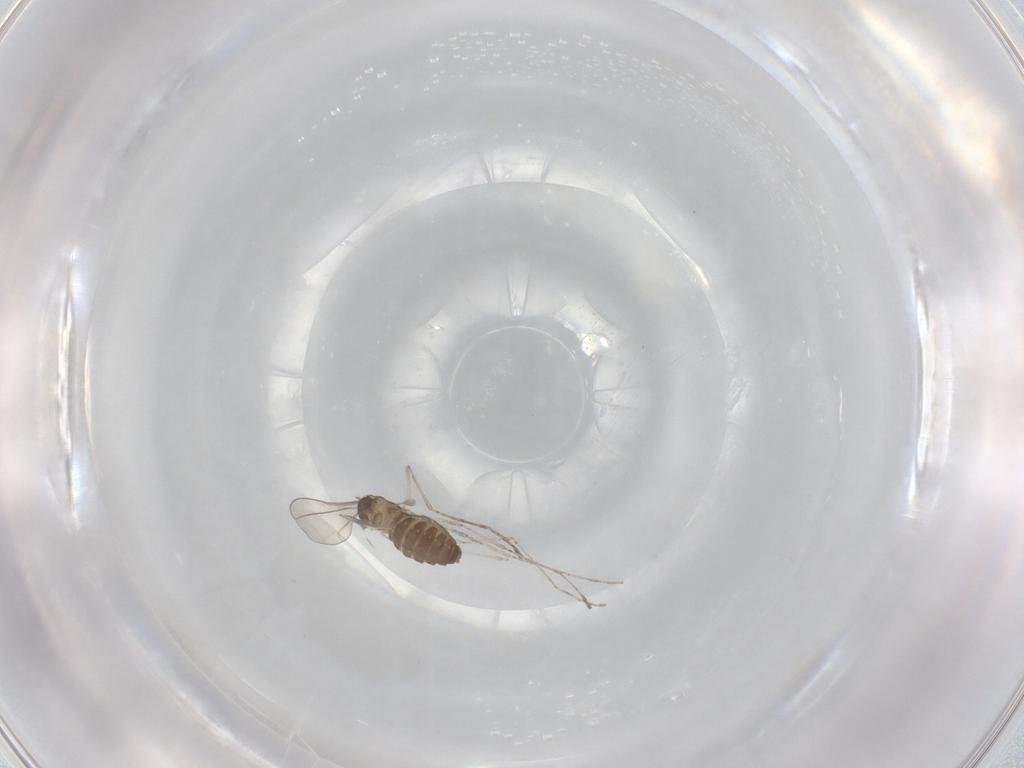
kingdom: Animalia
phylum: Arthropoda
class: Insecta
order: Diptera
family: Cecidomyiidae
